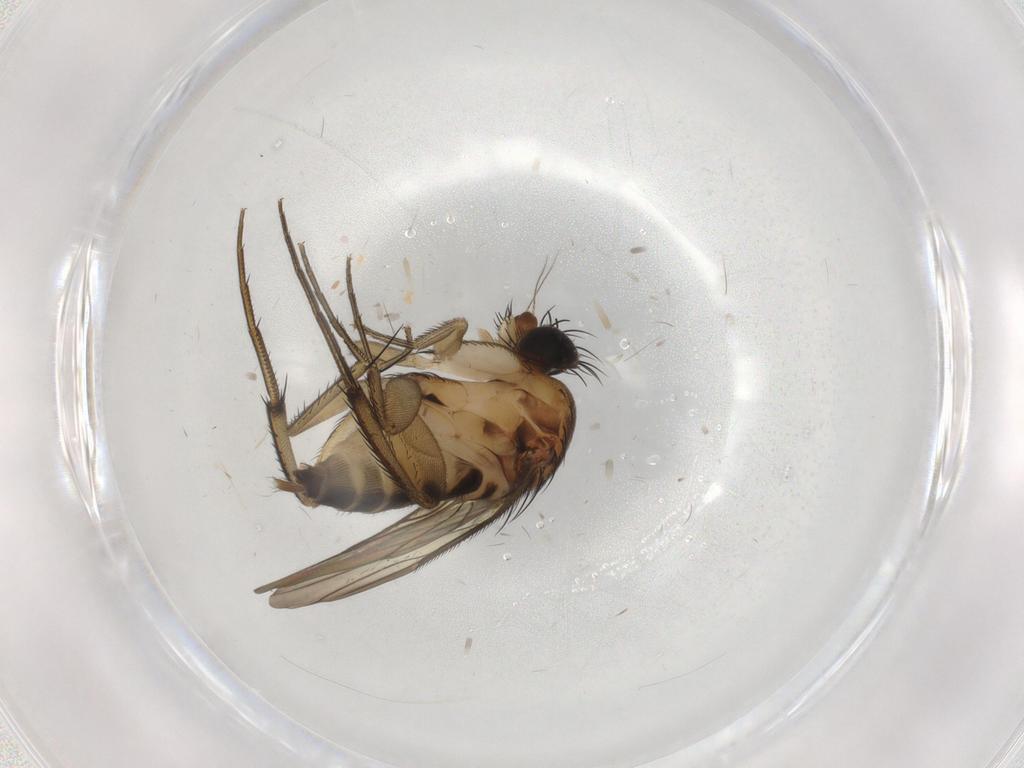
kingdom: Animalia
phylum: Arthropoda
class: Insecta
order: Diptera
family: Phoridae
